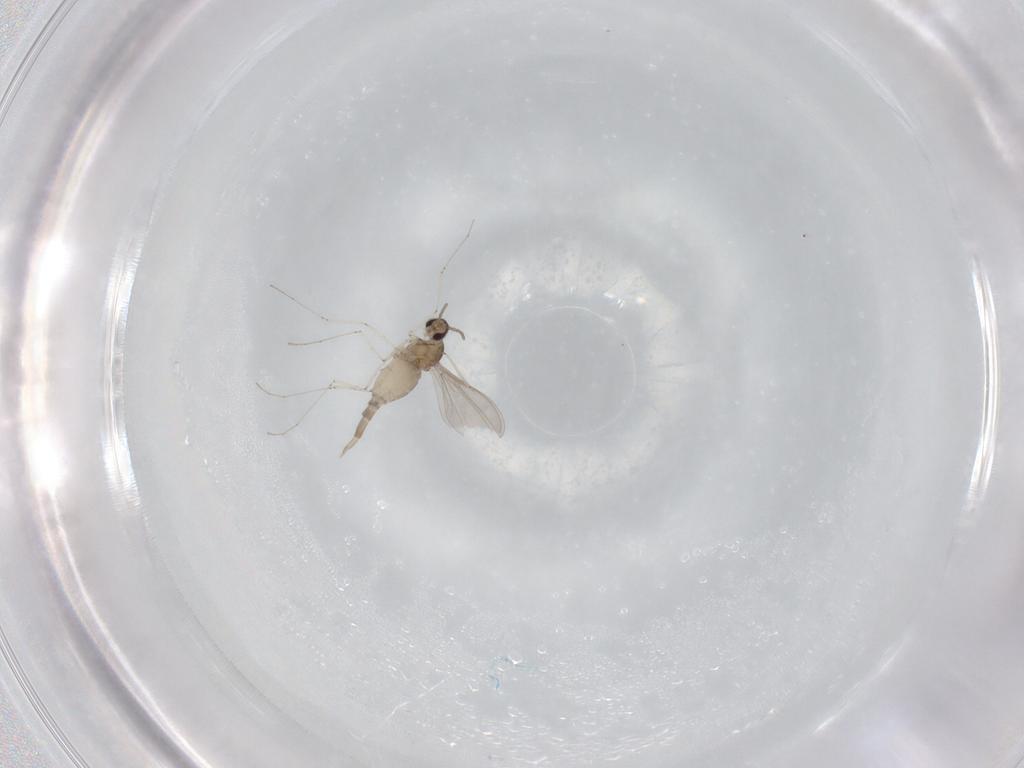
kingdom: Animalia
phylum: Arthropoda
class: Insecta
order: Diptera
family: Cecidomyiidae
